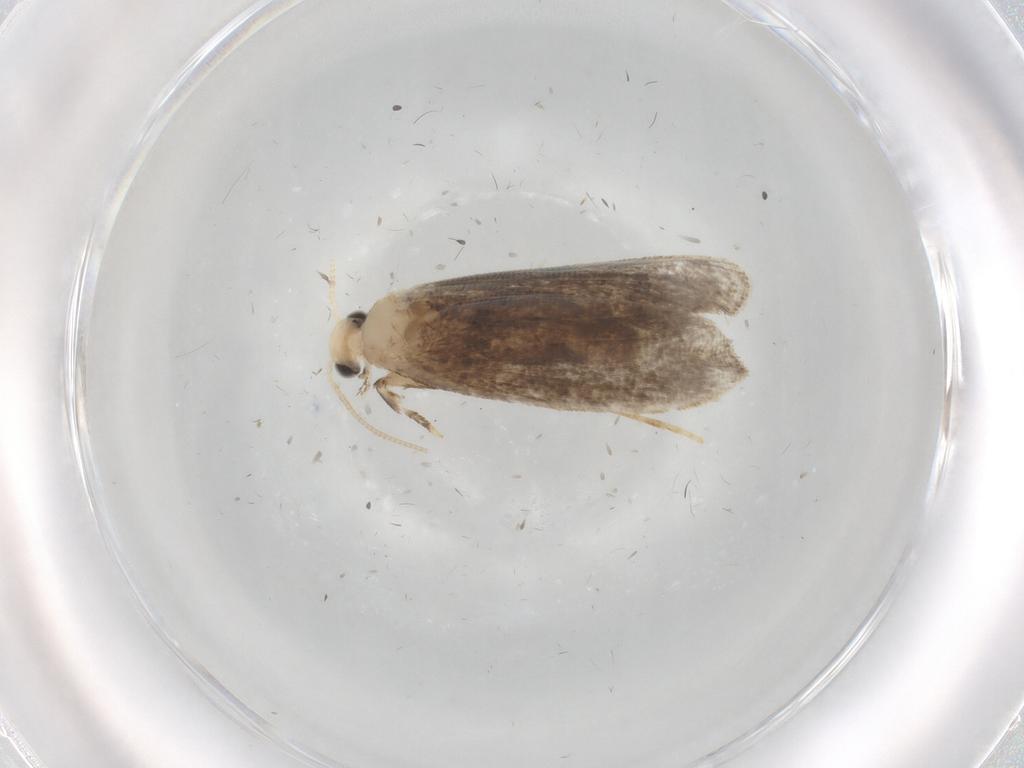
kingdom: Animalia
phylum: Arthropoda
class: Insecta
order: Lepidoptera
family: Dryadaulidae
